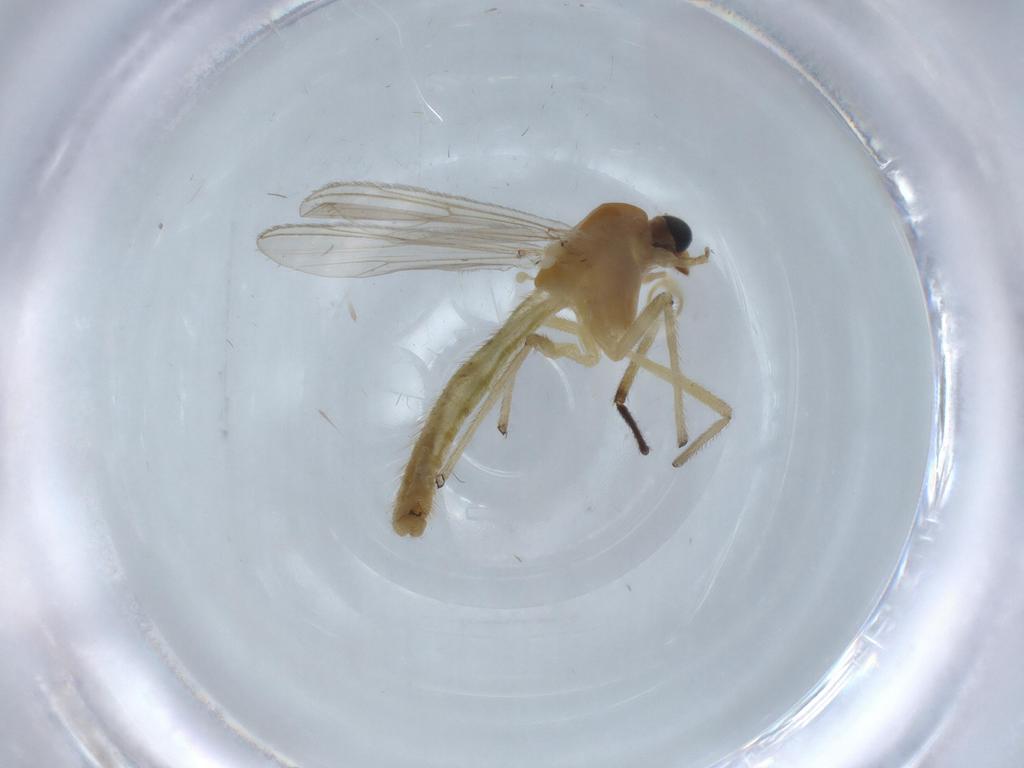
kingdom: Animalia
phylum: Arthropoda
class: Insecta
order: Diptera
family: Chironomidae
